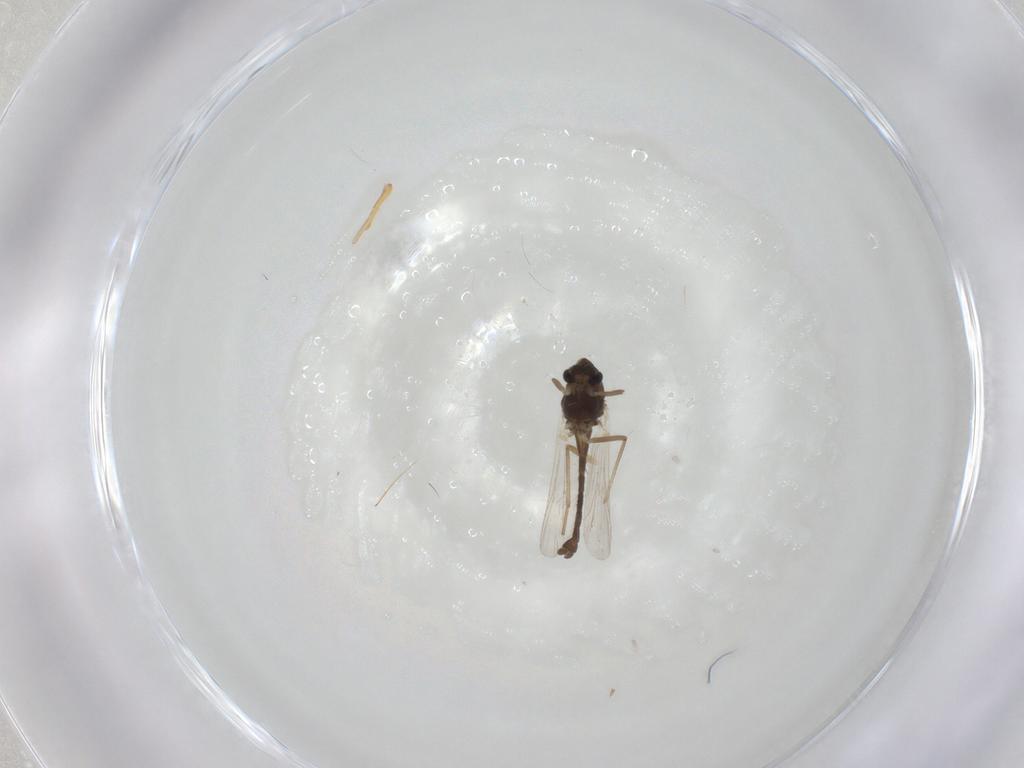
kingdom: Animalia
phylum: Arthropoda
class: Insecta
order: Diptera
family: Chironomidae
